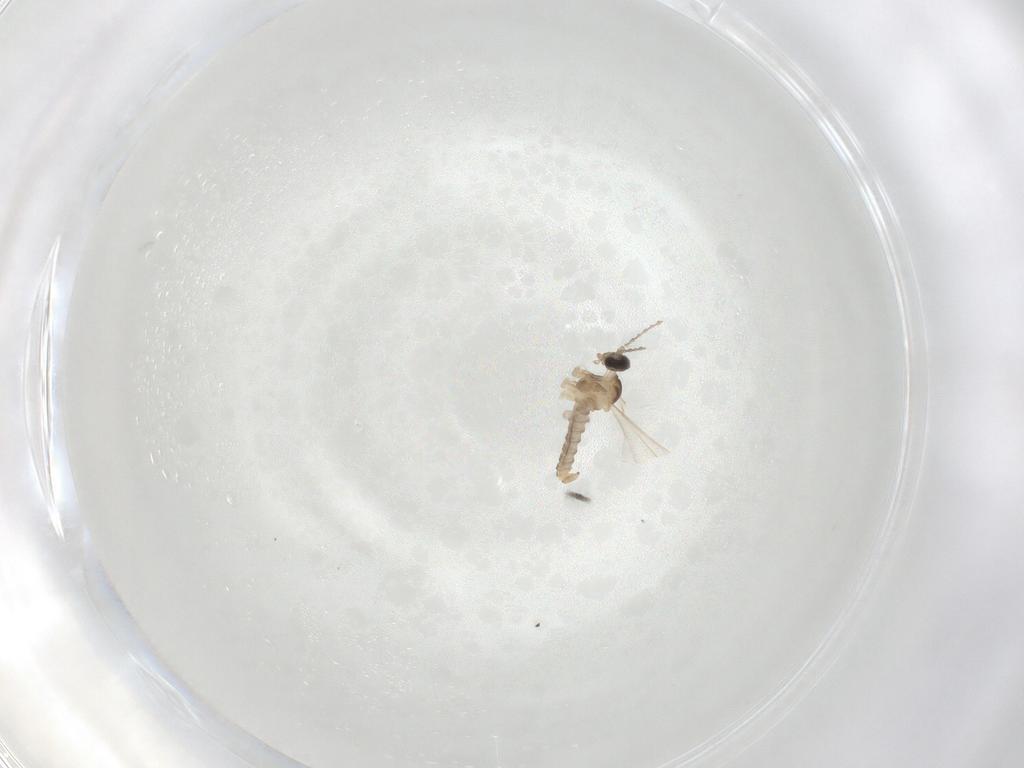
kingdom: Animalia
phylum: Arthropoda
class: Insecta
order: Diptera
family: Cecidomyiidae
